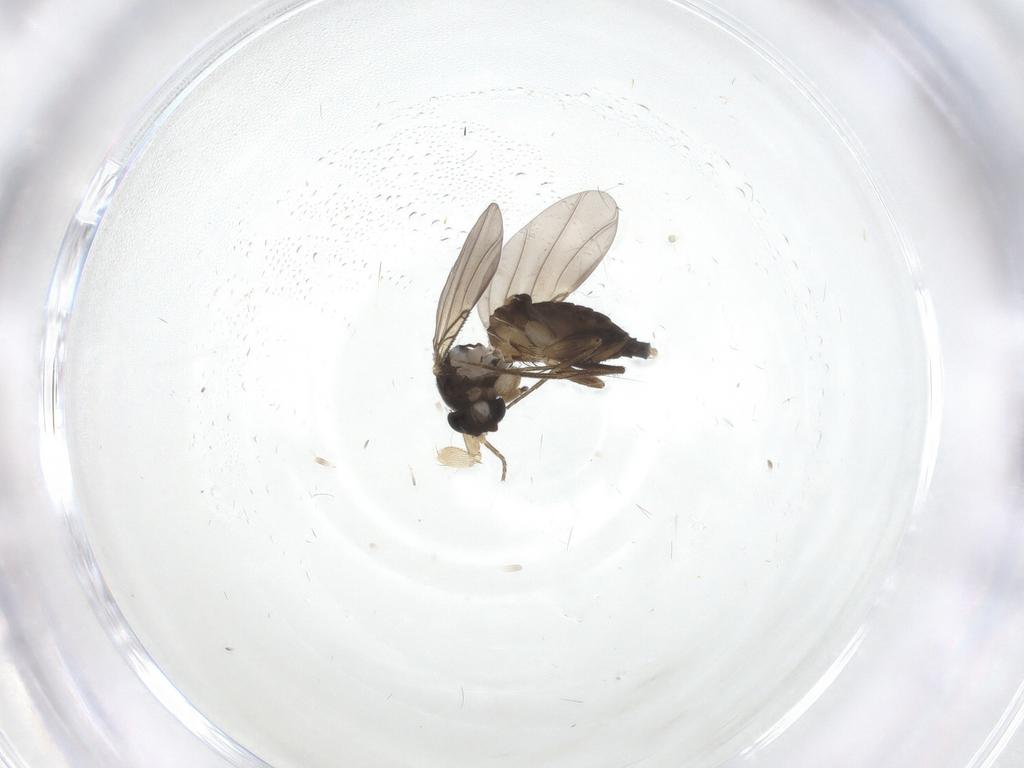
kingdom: Animalia
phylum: Arthropoda
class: Insecta
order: Diptera
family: Phoridae
